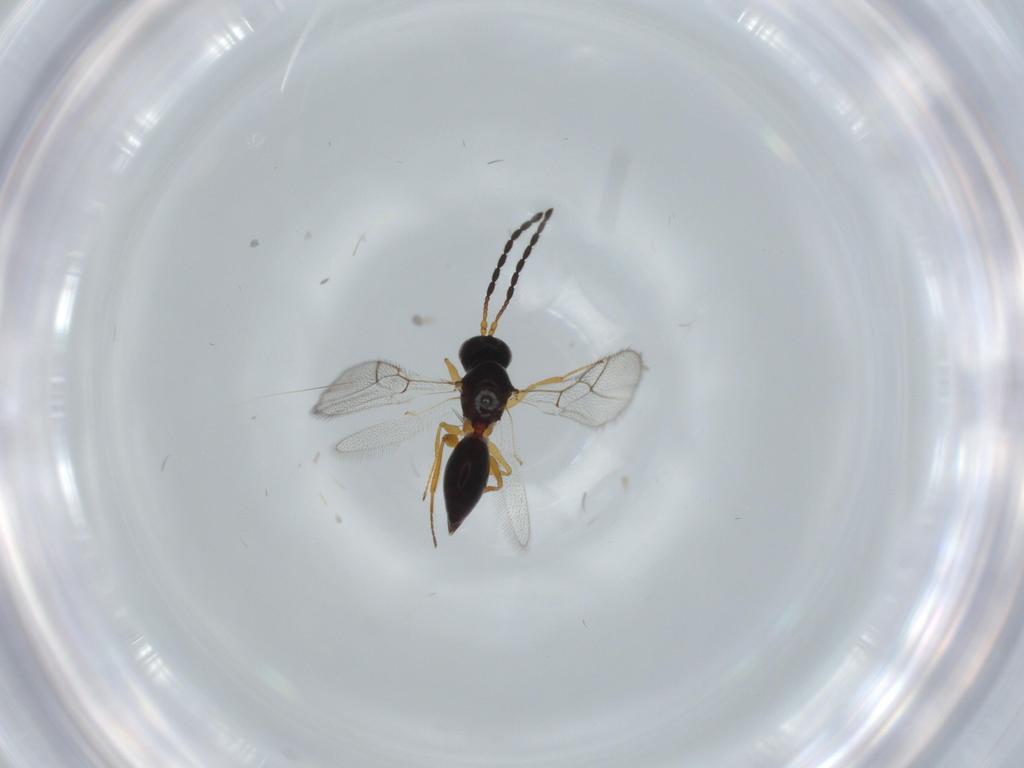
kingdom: Animalia
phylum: Arthropoda
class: Insecta
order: Hymenoptera
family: Figitidae
